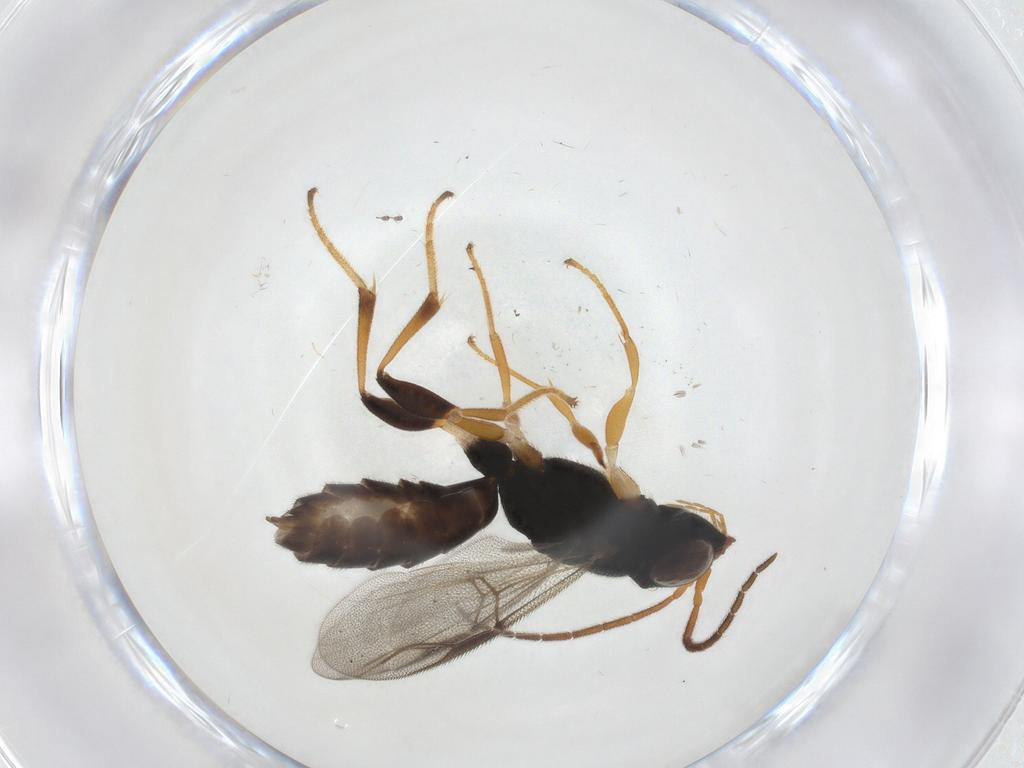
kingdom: Animalia
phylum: Arthropoda
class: Insecta
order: Hymenoptera
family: Dryinidae
